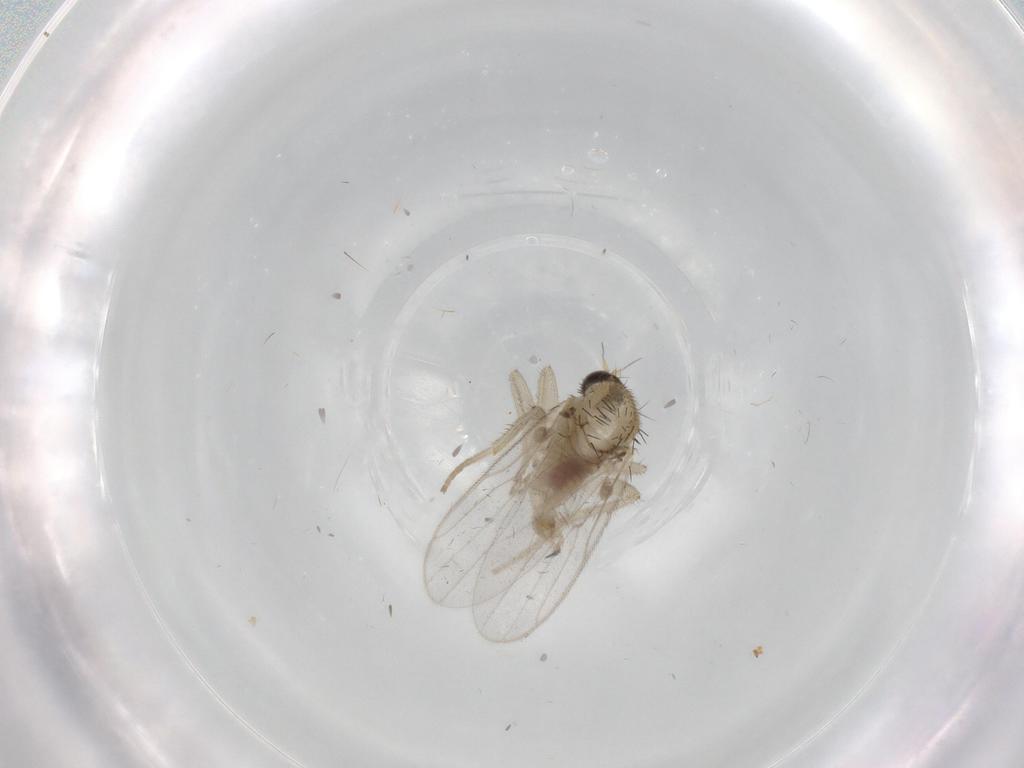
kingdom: Animalia
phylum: Arthropoda
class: Insecta
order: Diptera
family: Hybotidae
